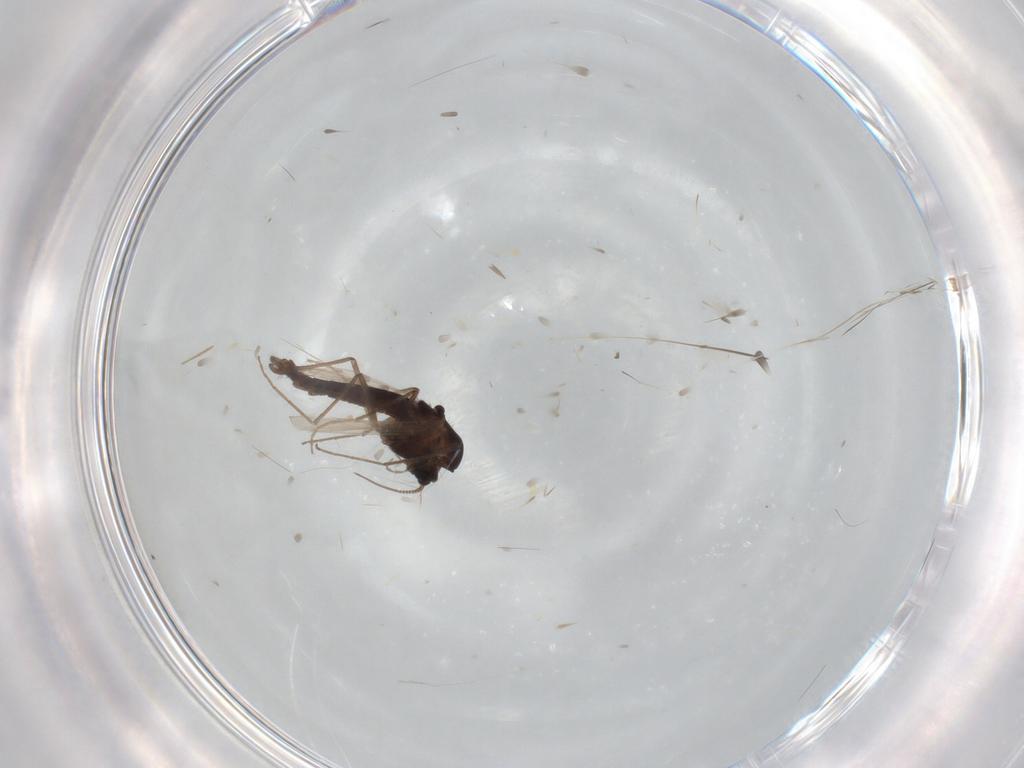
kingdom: Animalia
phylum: Arthropoda
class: Insecta
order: Diptera
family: Chironomidae
